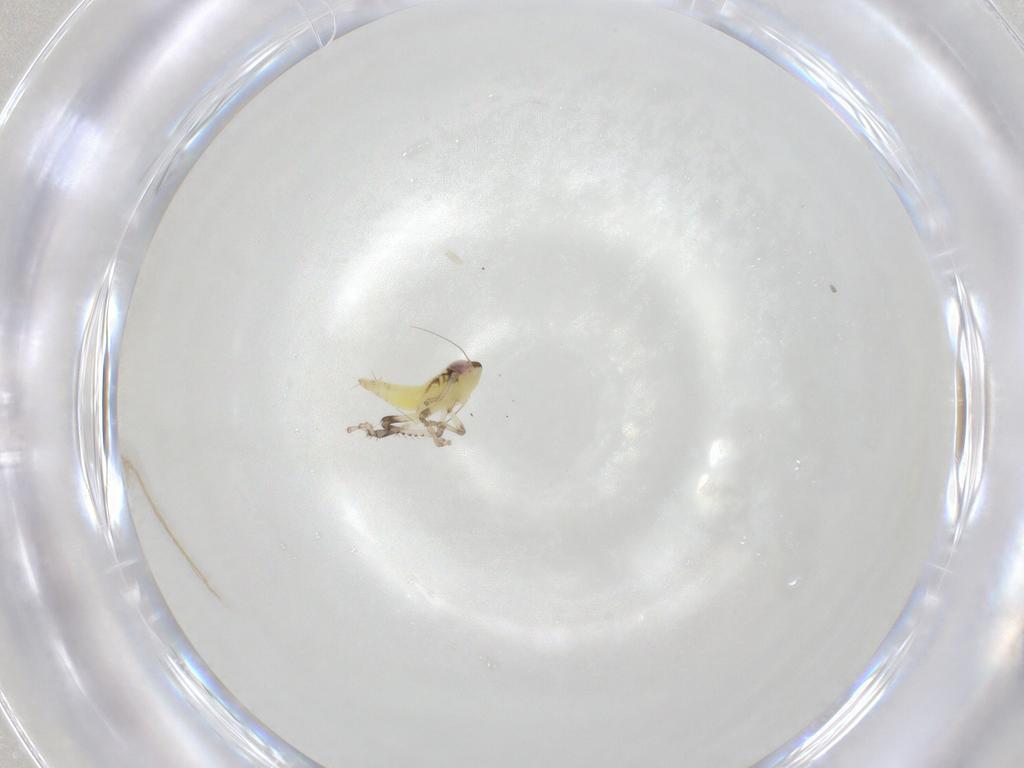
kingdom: Animalia
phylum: Arthropoda
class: Insecta
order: Hemiptera
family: Cicadellidae
